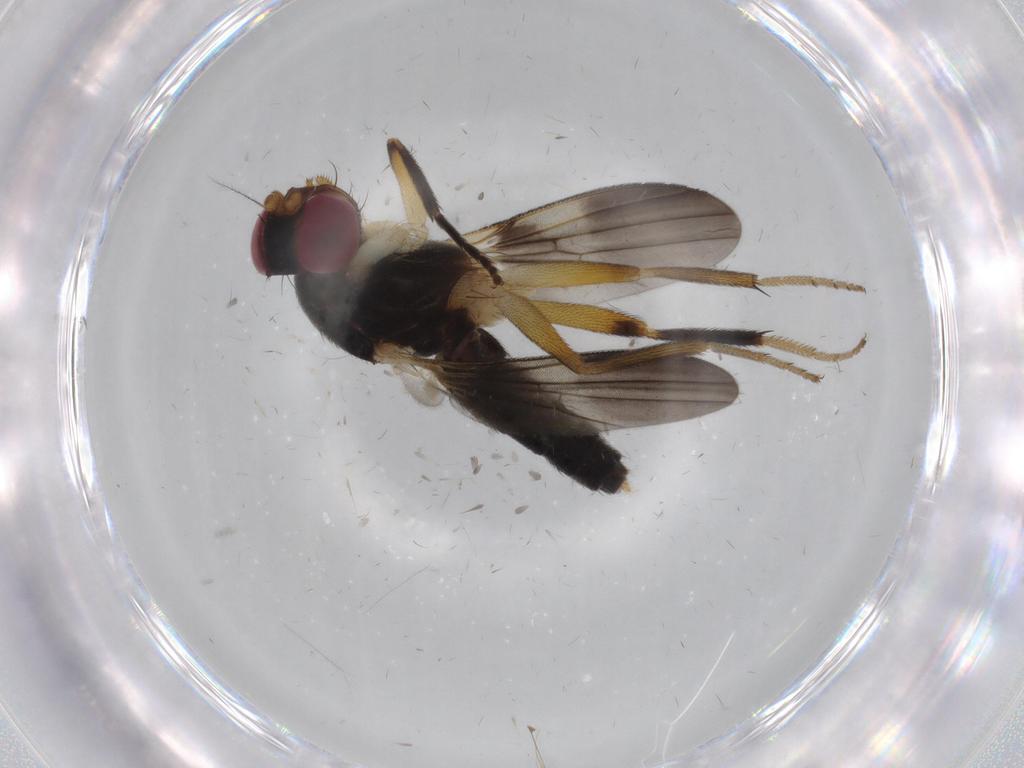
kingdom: Animalia
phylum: Arthropoda
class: Insecta
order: Diptera
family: Clusiidae
